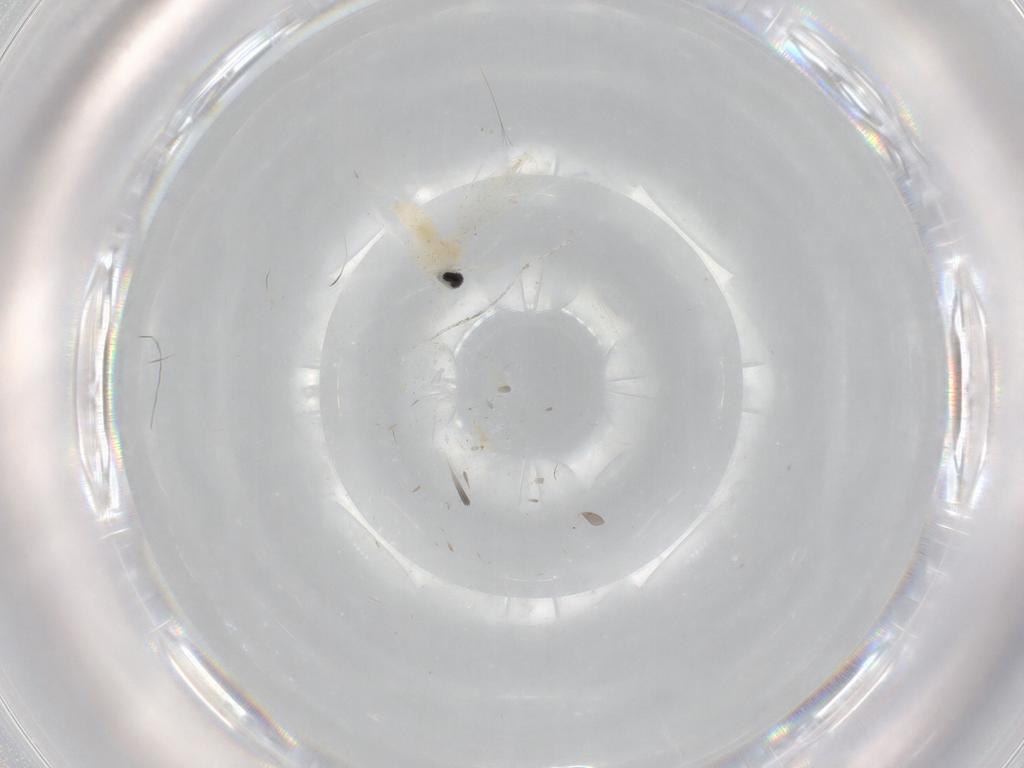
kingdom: Animalia
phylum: Arthropoda
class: Insecta
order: Diptera
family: Cecidomyiidae
